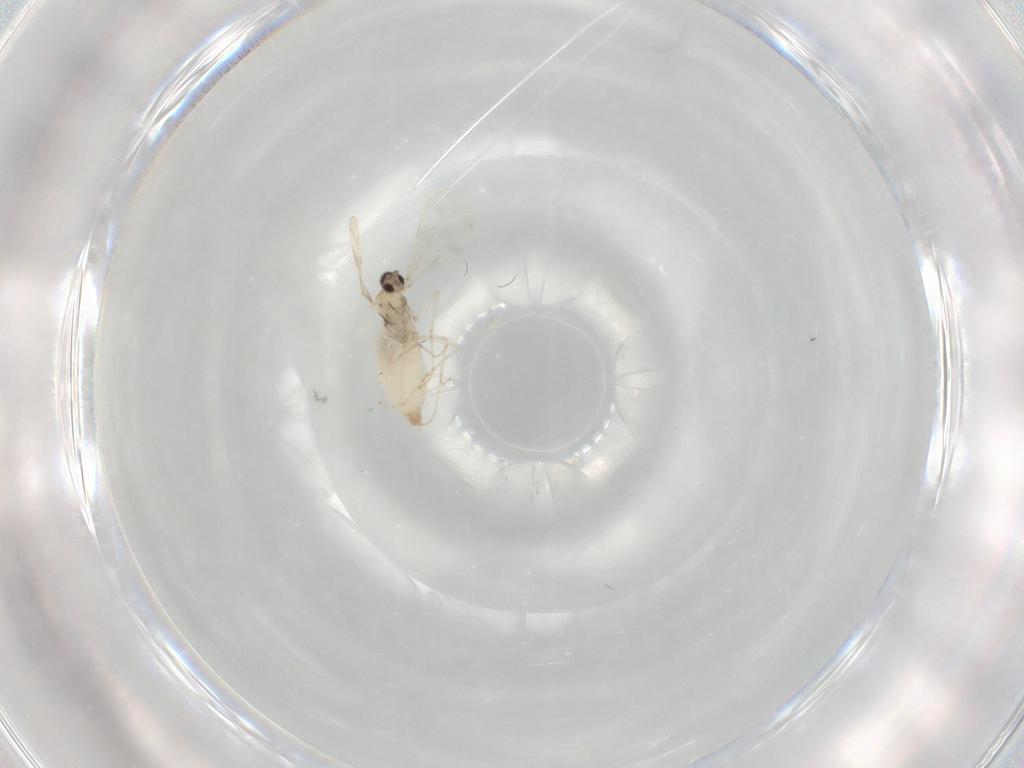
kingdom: Animalia
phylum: Arthropoda
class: Insecta
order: Diptera
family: Cecidomyiidae
